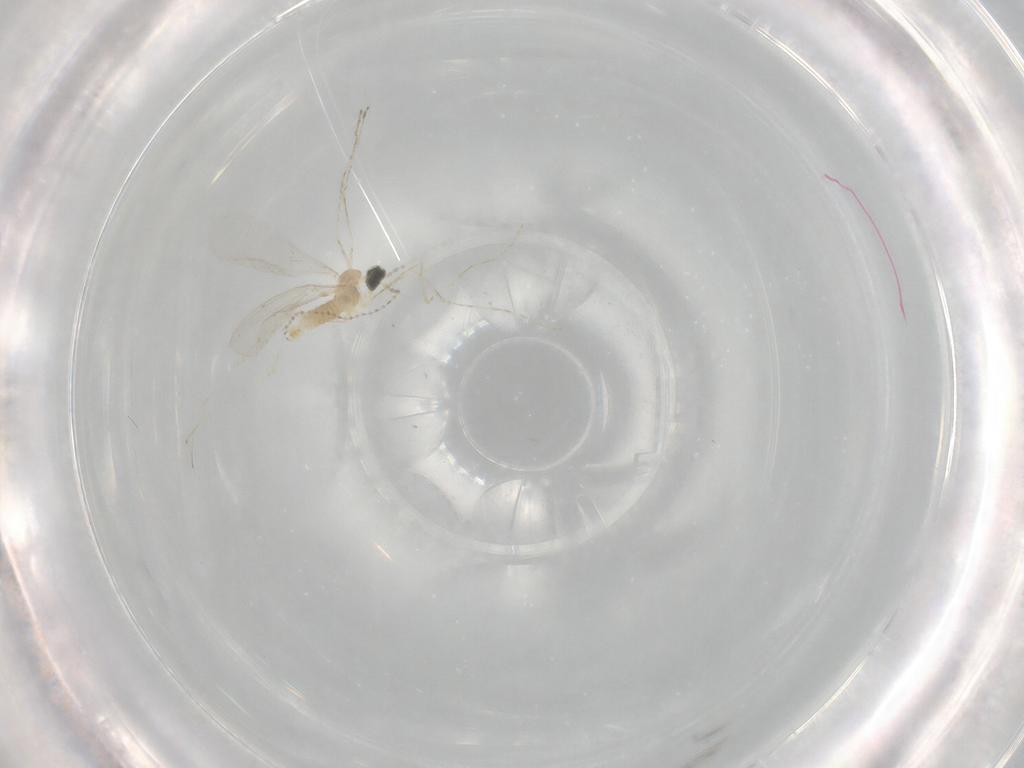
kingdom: Animalia
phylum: Arthropoda
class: Insecta
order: Diptera
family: Cecidomyiidae
